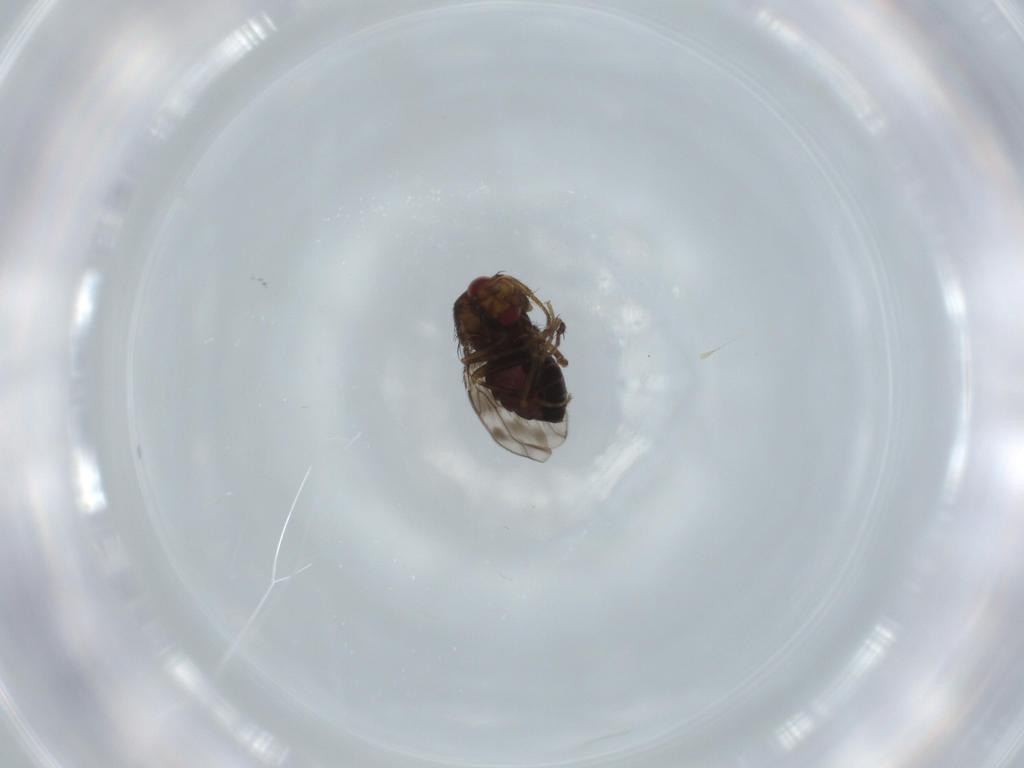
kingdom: Animalia
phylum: Arthropoda
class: Insecta
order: Diptera
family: Sphaeroceridae
